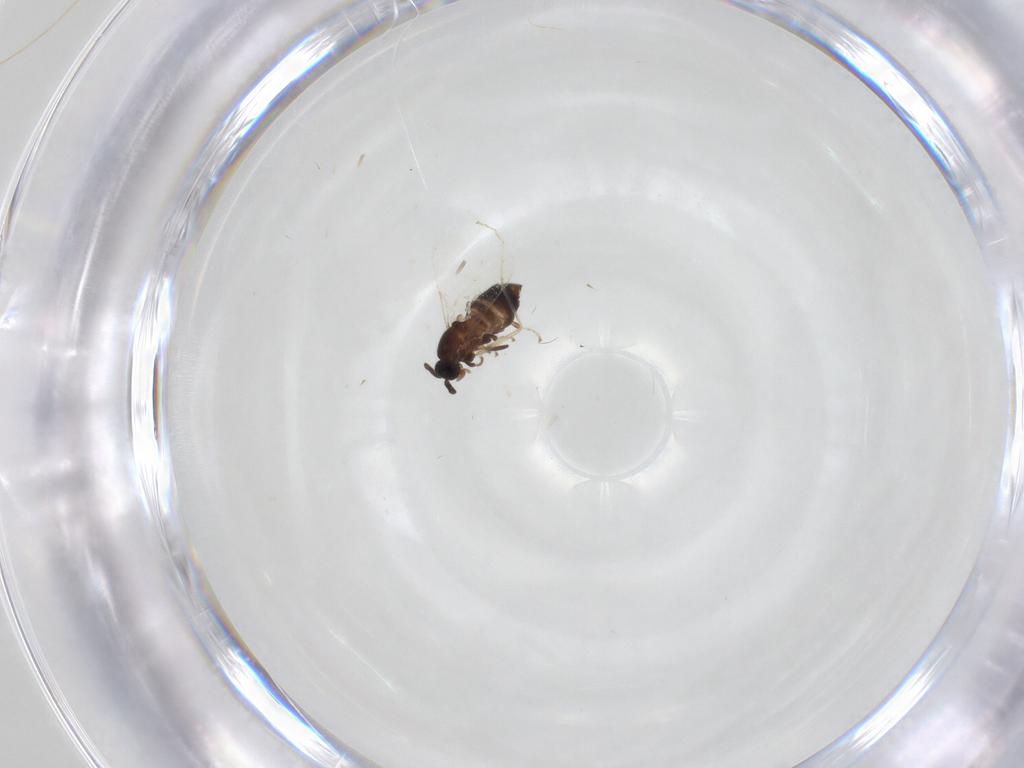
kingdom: Animalia
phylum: Arthropoda
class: Insecta
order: Diptera
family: Scatopsidae
